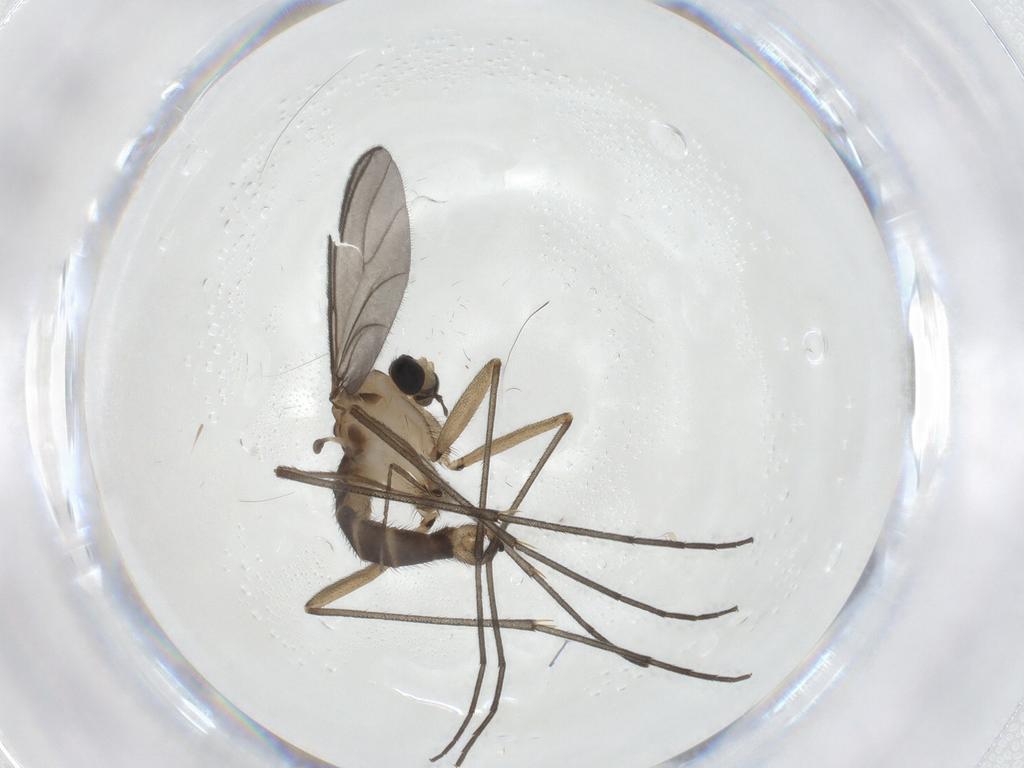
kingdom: Animalia
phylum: Arthropoda
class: Insecta
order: Diptera
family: Sciaridae
